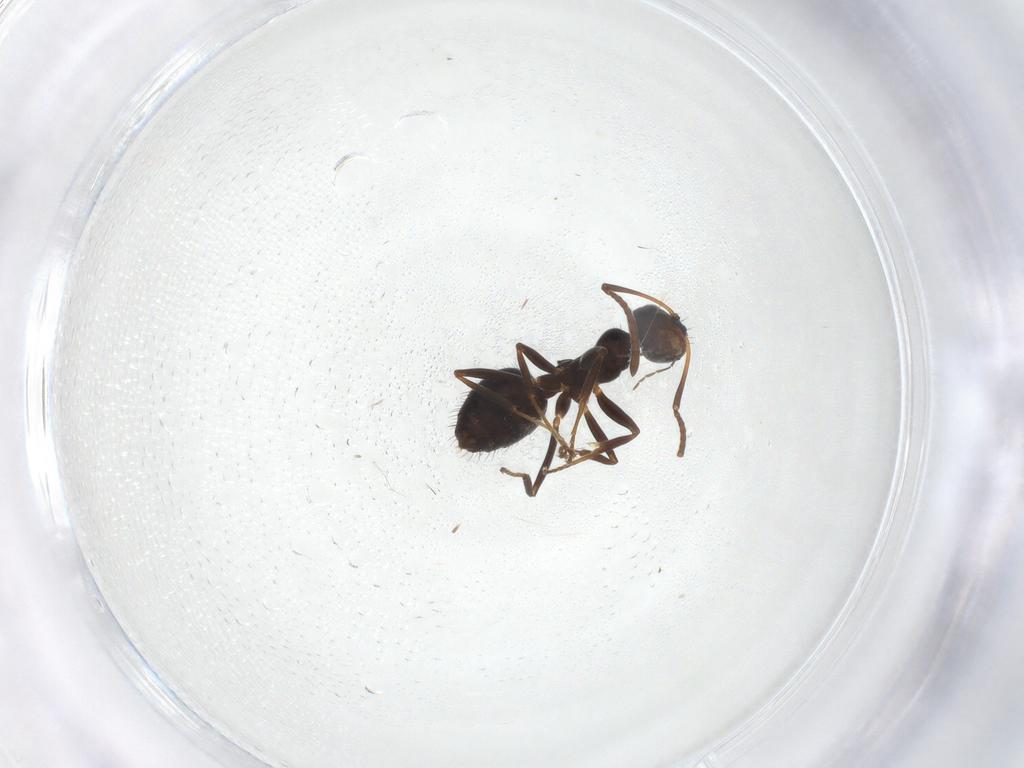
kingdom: Animalia
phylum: Arthropoda
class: Insecta
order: Hymenoptera
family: Formicidae
